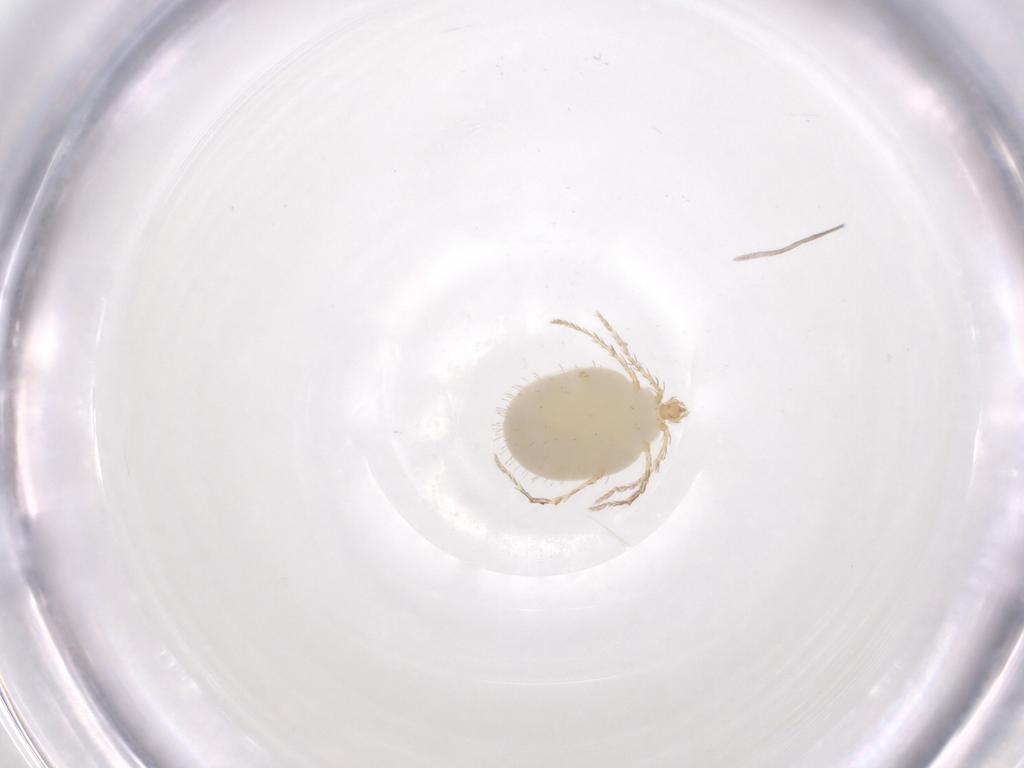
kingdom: Animalia
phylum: Arthropoda
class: Arachnida
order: Trombidiformes
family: Erythraeidae
